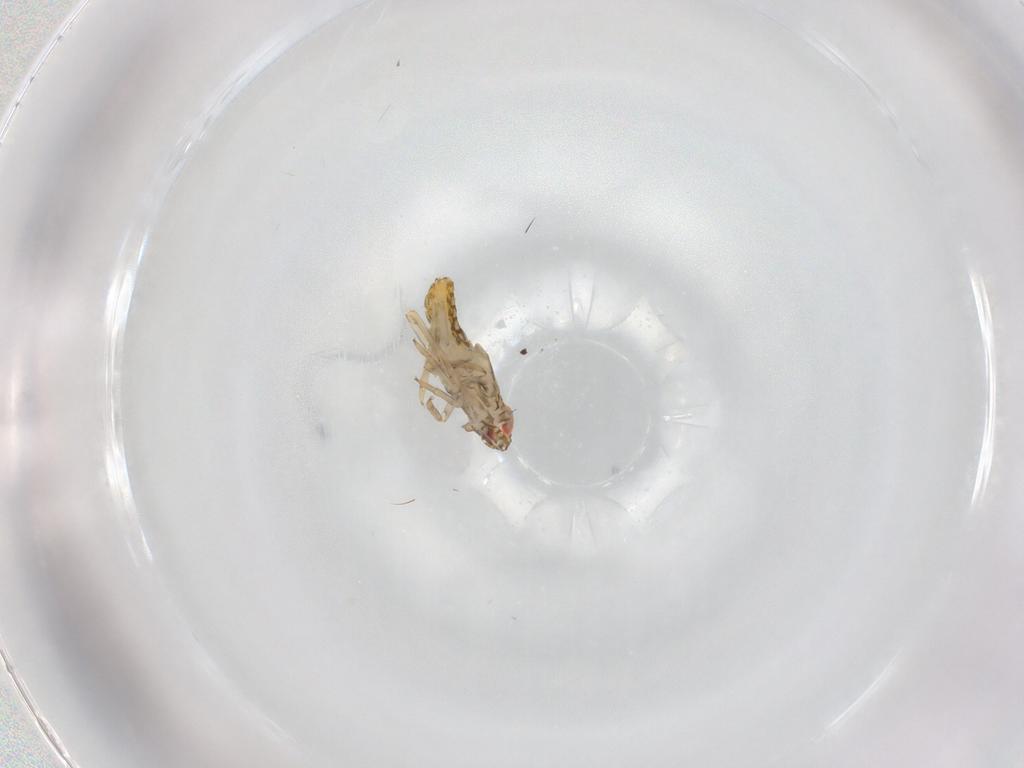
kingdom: Animalia
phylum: Arthropoda
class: Insecta
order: Hemiptera
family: Delphacidae
